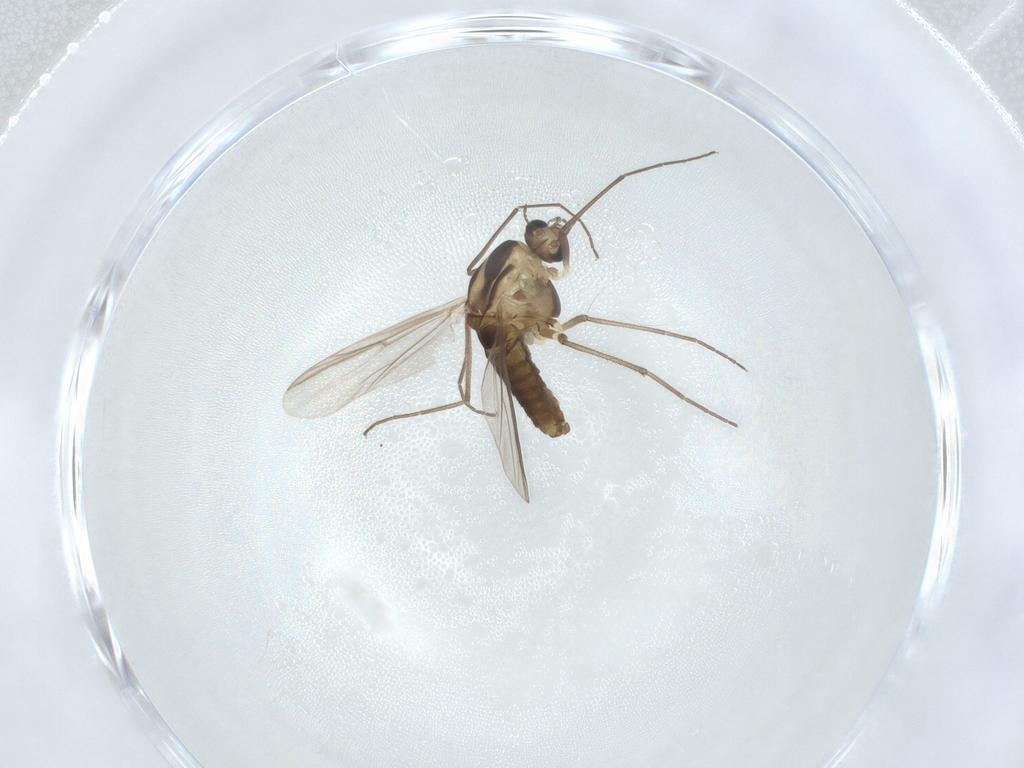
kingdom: Animalia
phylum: Arthropoda
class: Insecta
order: Diptera
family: Chironomidae
